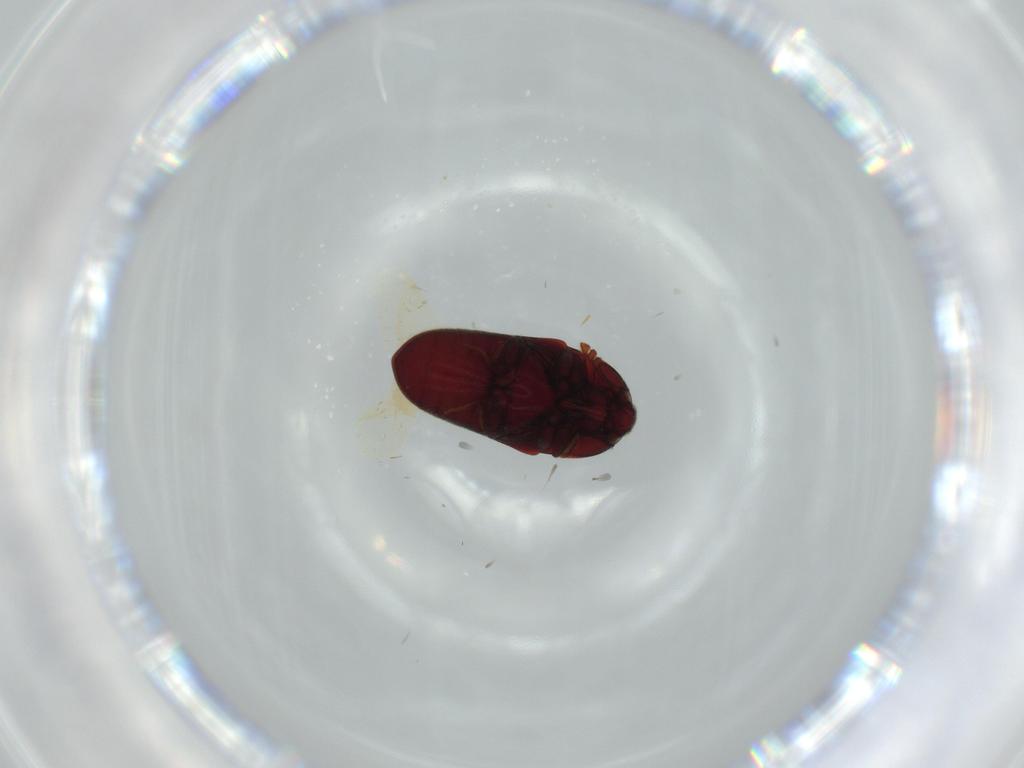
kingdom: Animalia
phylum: Arthropoda
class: Insecta
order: Coleoptera
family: Throscidae
